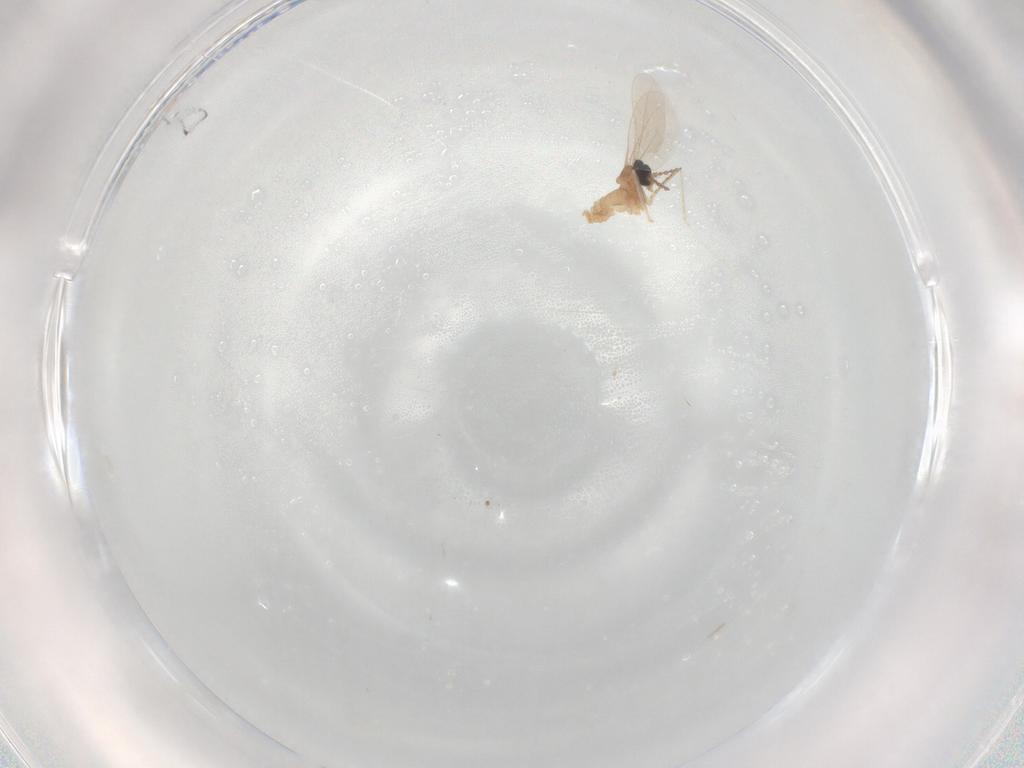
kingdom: Animalia
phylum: Arthropoda
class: Insecta
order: Diptera
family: Cecidomyiidae
